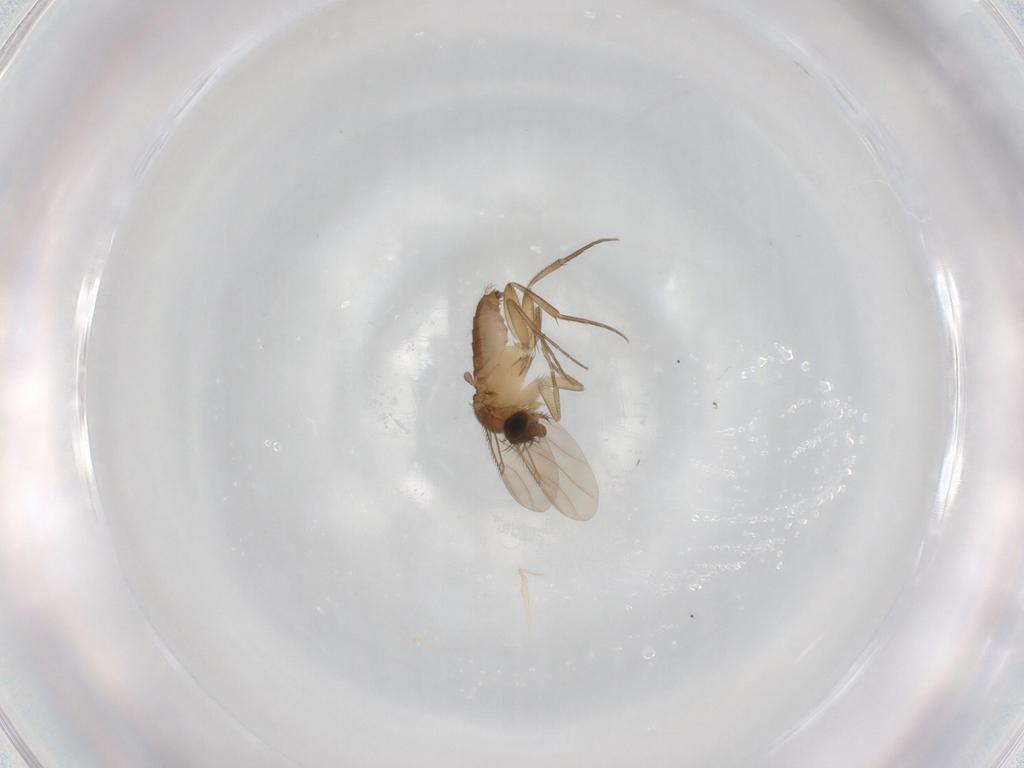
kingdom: Animalia
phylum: Arthropoda
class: Insecta
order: Diptera
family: Phoridae
